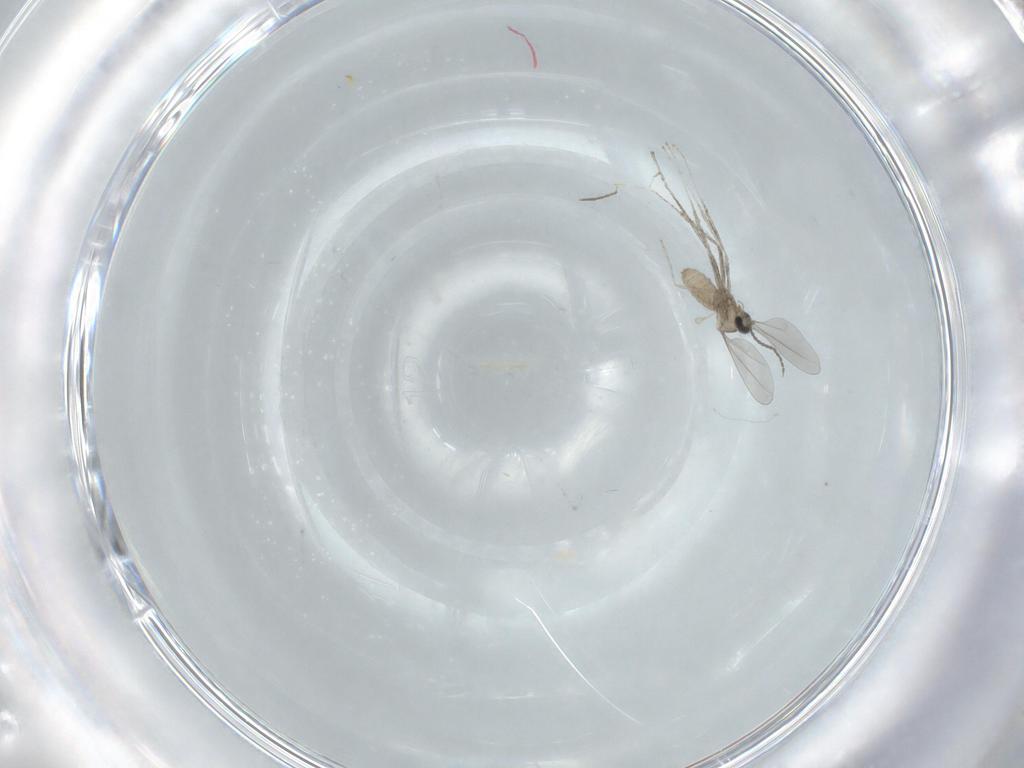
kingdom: Animalia
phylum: Arthropoda
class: Insecta
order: Diptera
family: Cecidomyiidae
